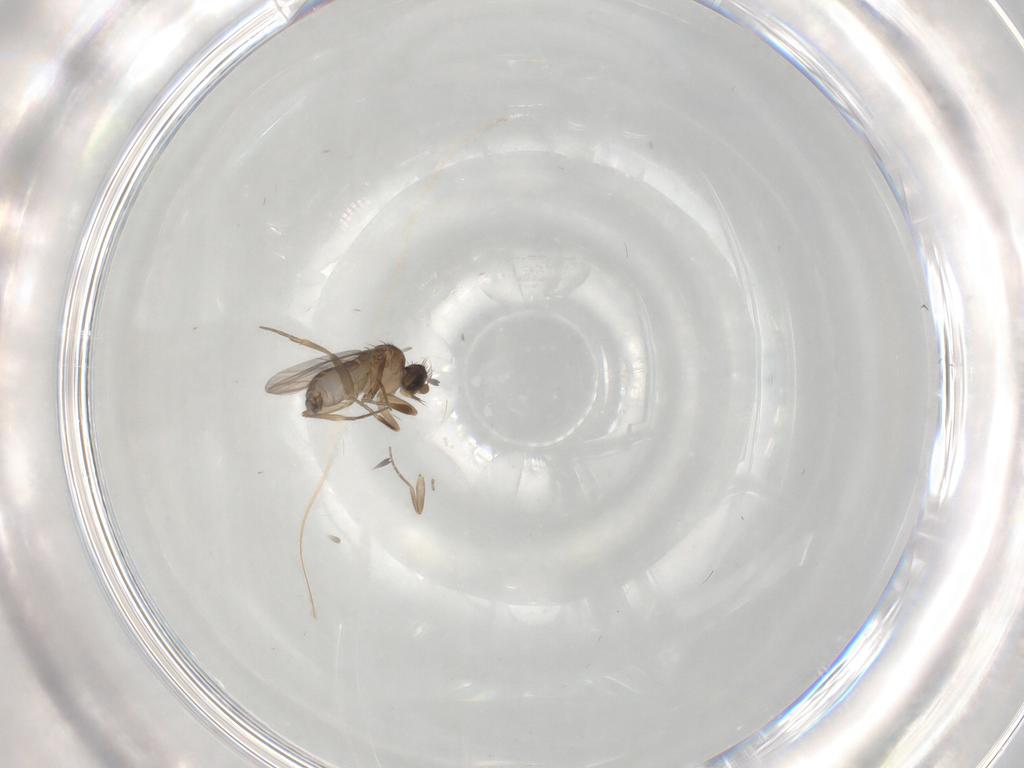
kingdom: Animalia
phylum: Arthropoda
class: Insecta
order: Diptera
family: Phoridae
